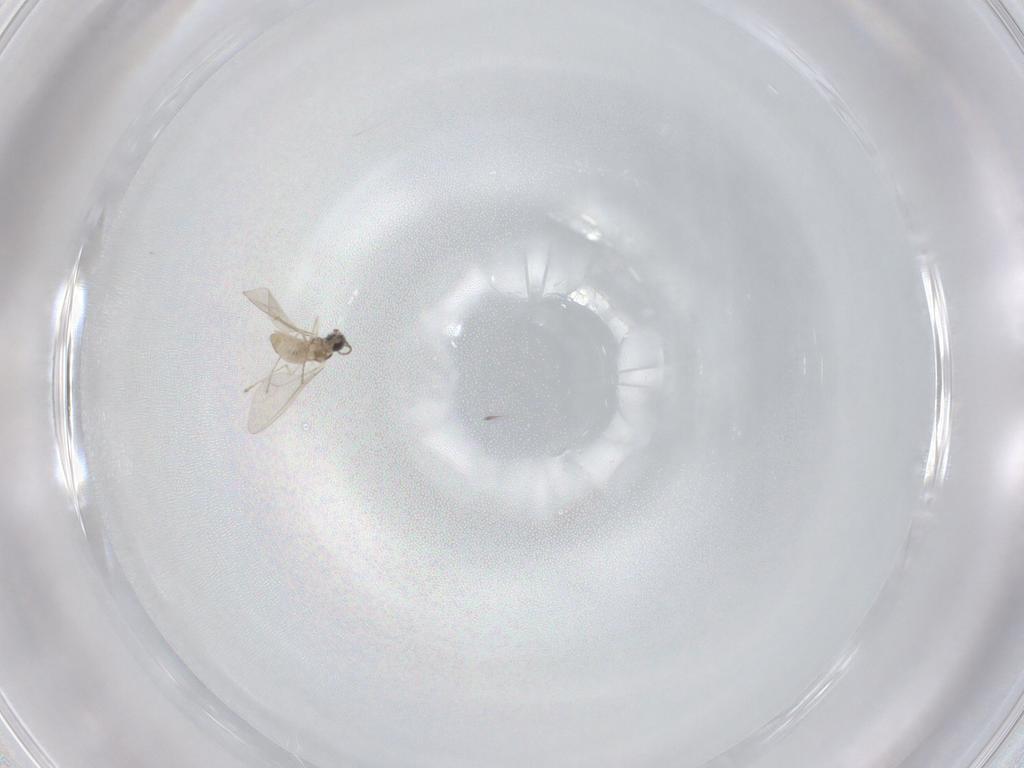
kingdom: Animalia
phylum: Arthropoda
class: Insecta
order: Diptera
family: Cecidomyiidae
